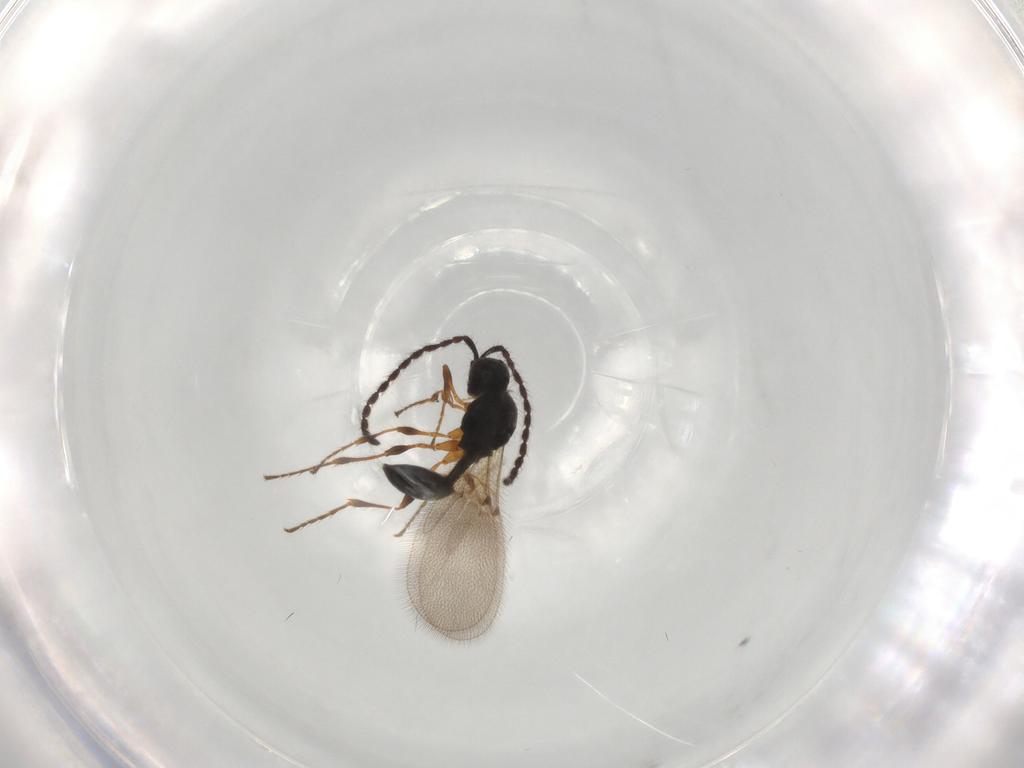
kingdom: Animalia
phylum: Arthropoda
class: Insecta
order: Hymenoptera
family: Diapriidae
